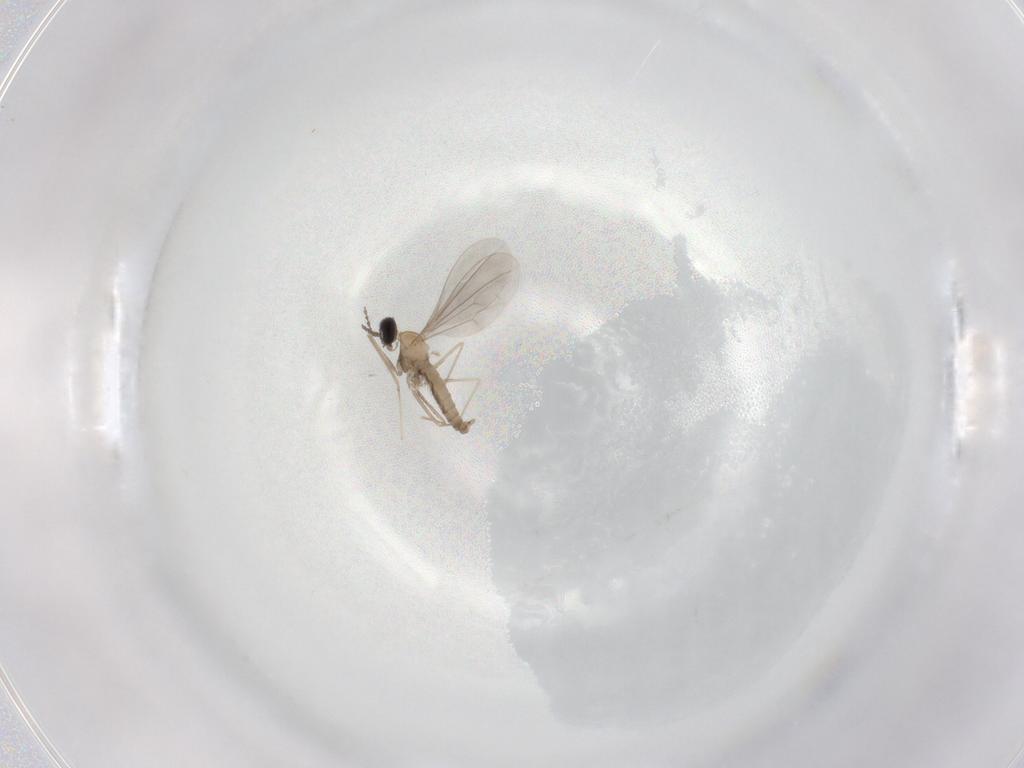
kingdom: Animalia
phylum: Arthropoda
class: Insecta
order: Diptera
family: Cecidomyiidae
